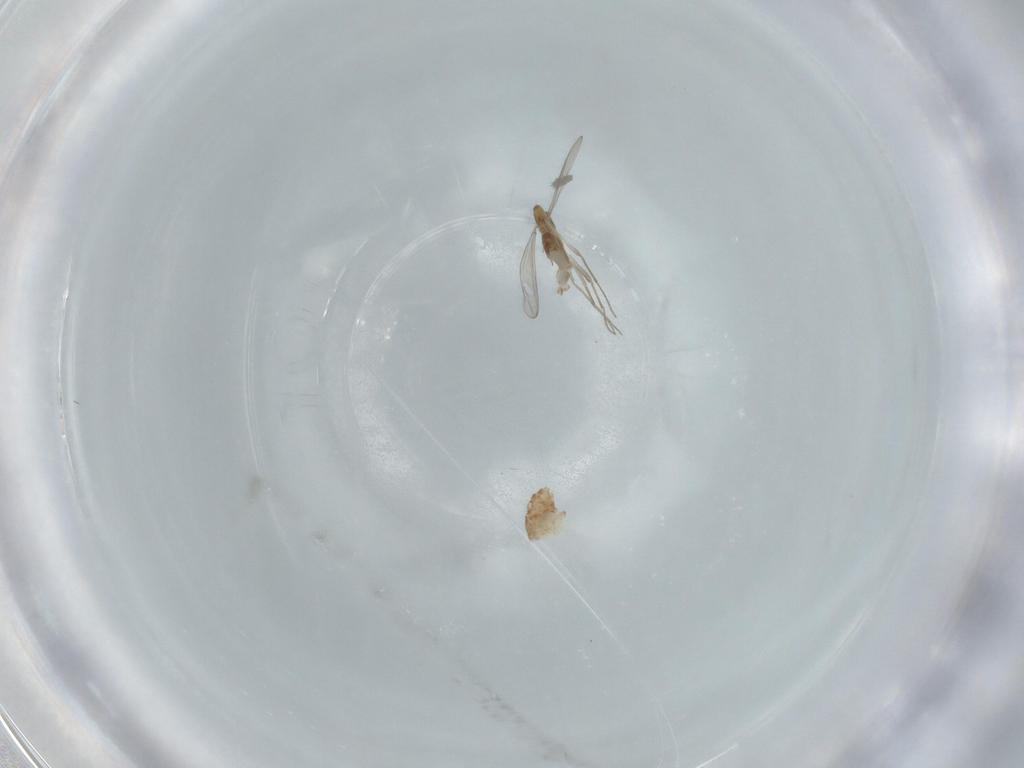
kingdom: Animalia
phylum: Arthropoda
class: Insecta
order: Diptera
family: Chironomidae
